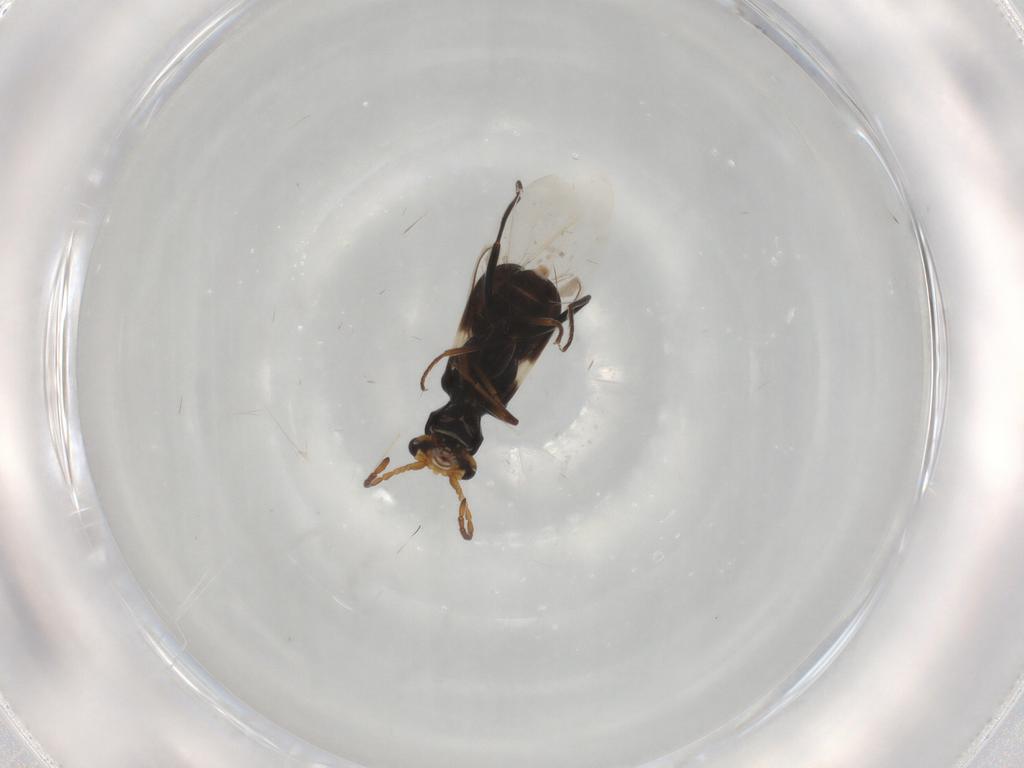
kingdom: Animalia
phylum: Arthropoda
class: Insecta
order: Coleoptera
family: Melyridae
